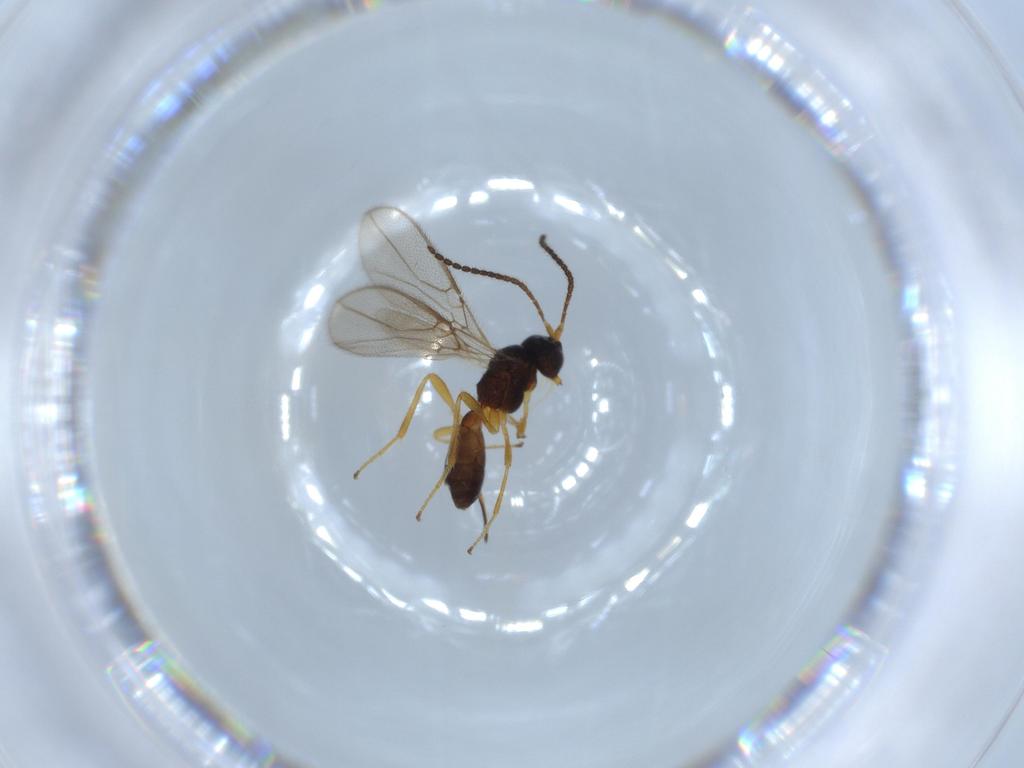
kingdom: Animalia
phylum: Arthropoda
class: Insecta
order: Hymenoptera
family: Braconidae
